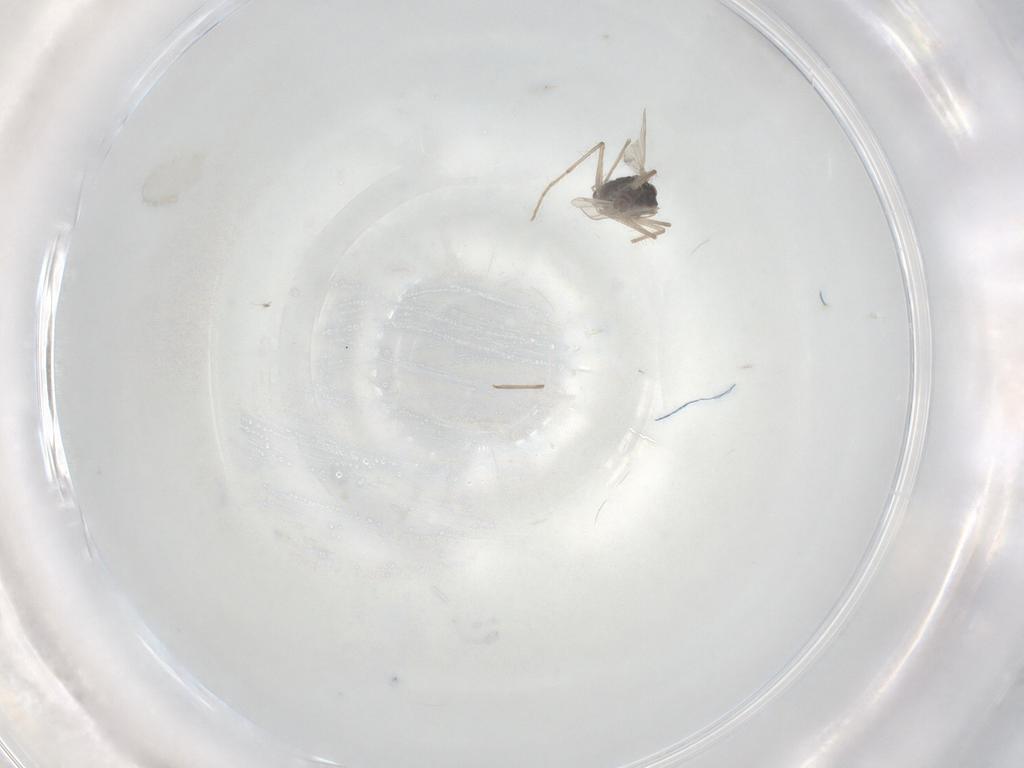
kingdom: Animalia
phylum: Arthropoda
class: Insecta
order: Diptera
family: Chironomidae
